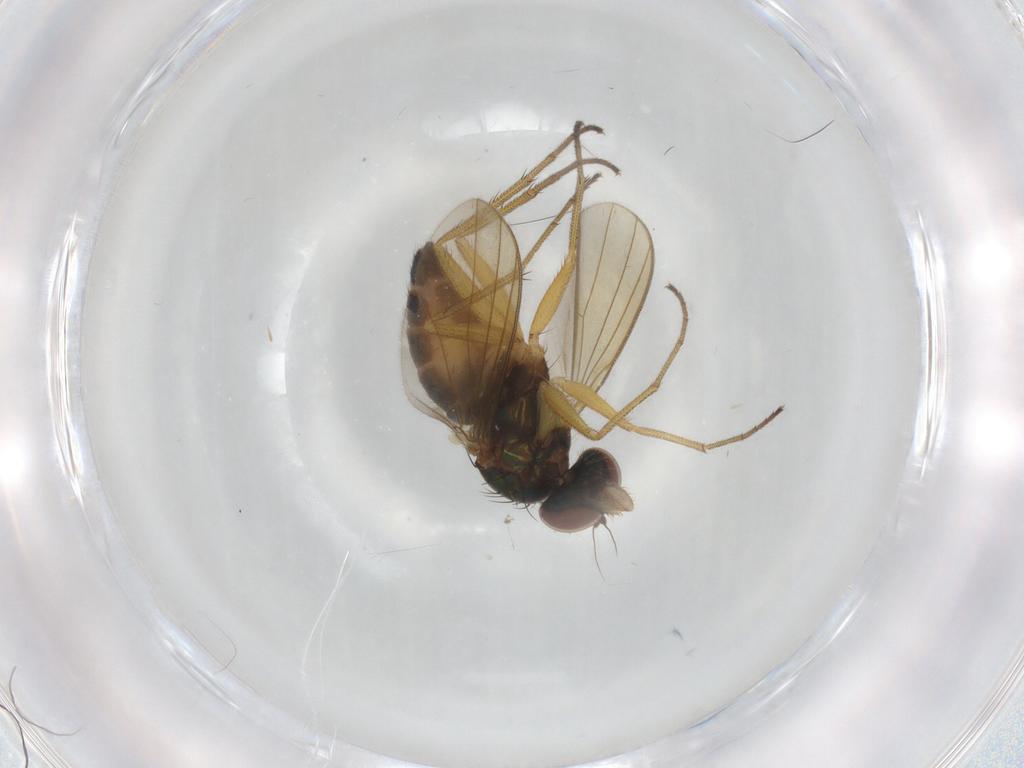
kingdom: Animalia
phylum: Arthropoda
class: Insecta
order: Diptera
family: Dolichopodidae
